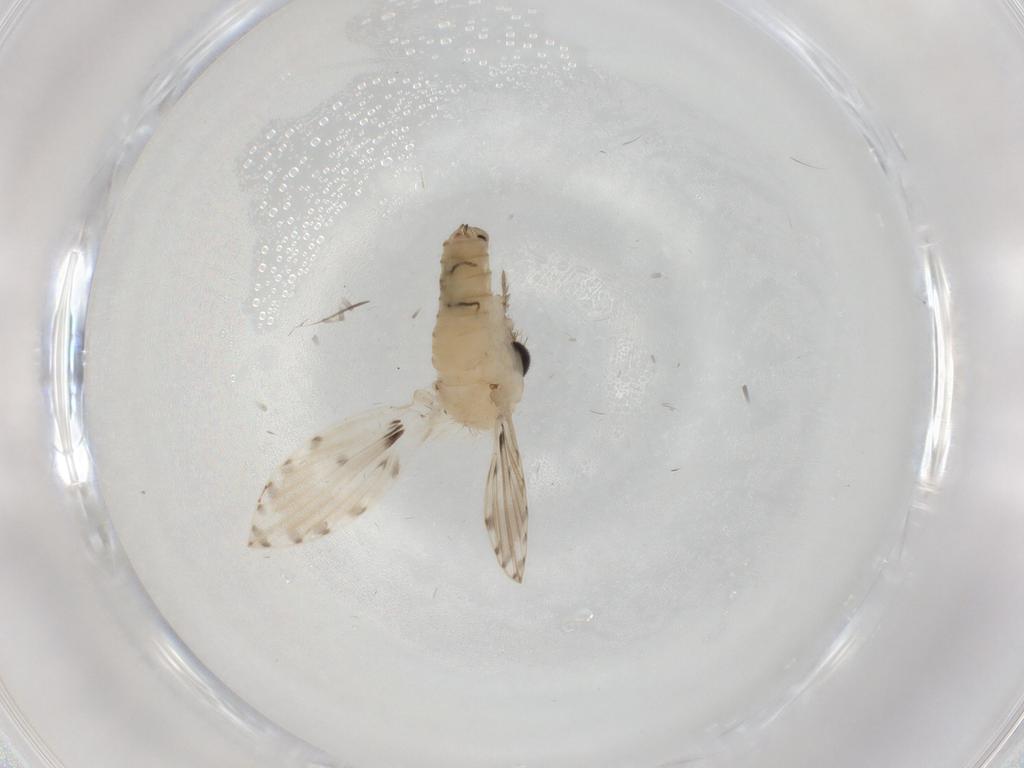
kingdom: Animalia
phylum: Arthropoda
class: Insecta
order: Diptera
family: Psychodidae
